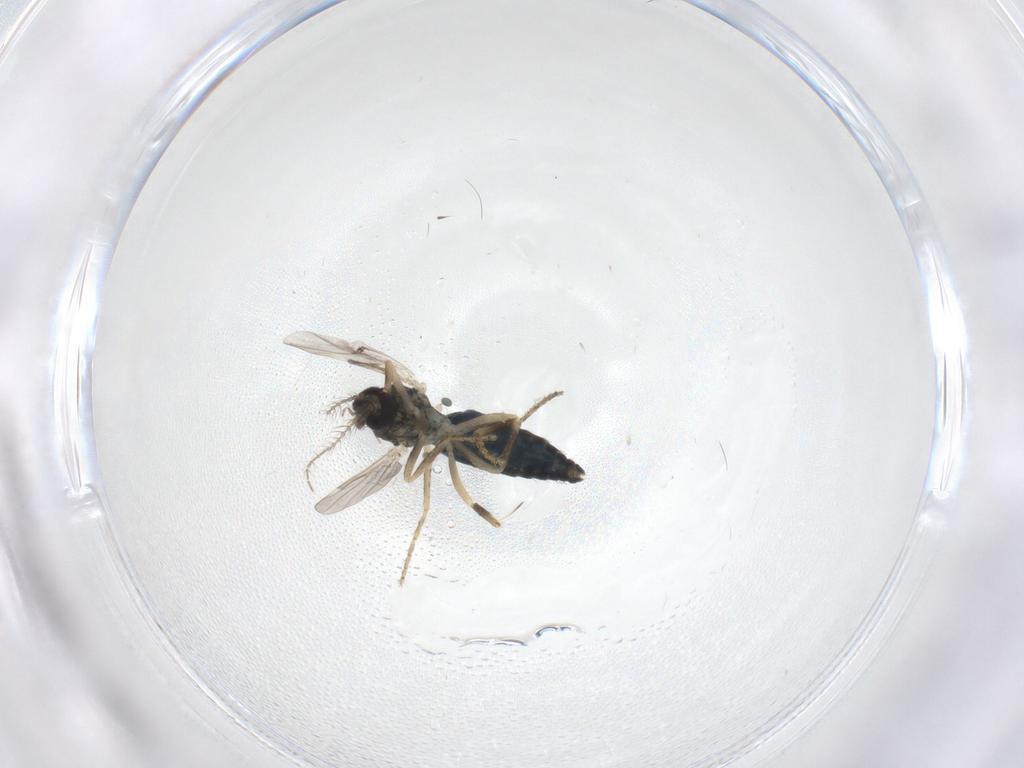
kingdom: Animalia
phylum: Arthropoda
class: Insecta
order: Diptera
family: Ceratopogonidae
